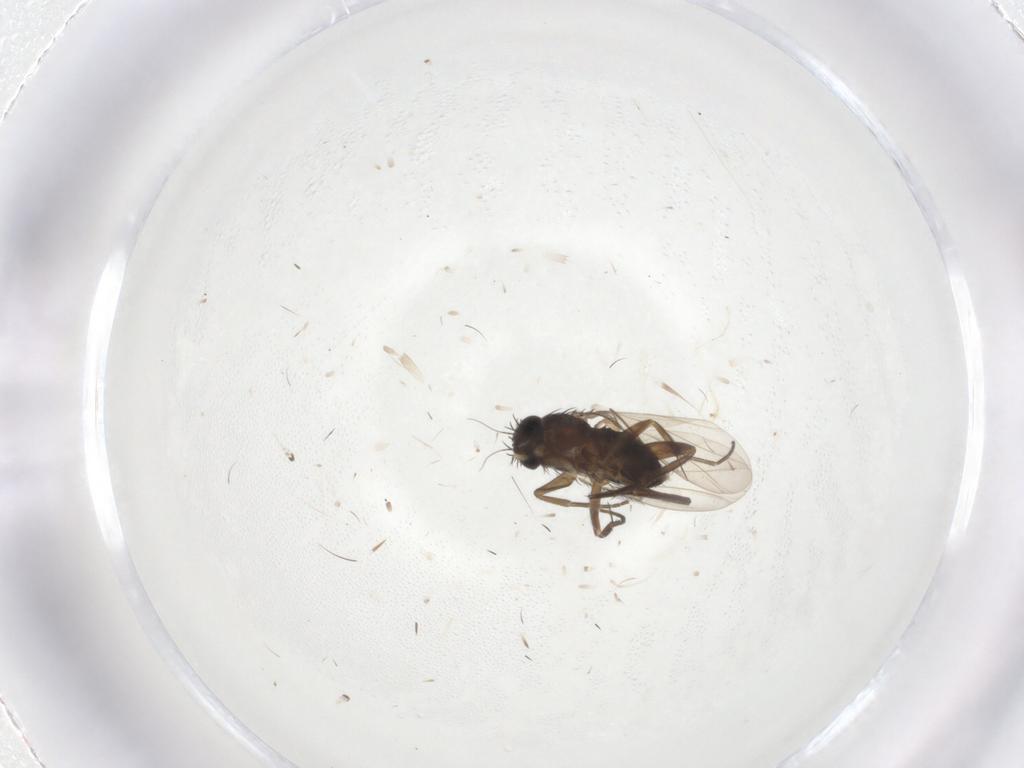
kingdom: Animalia
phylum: Arthropoda
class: Insecta
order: Diptera
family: Phoridae
